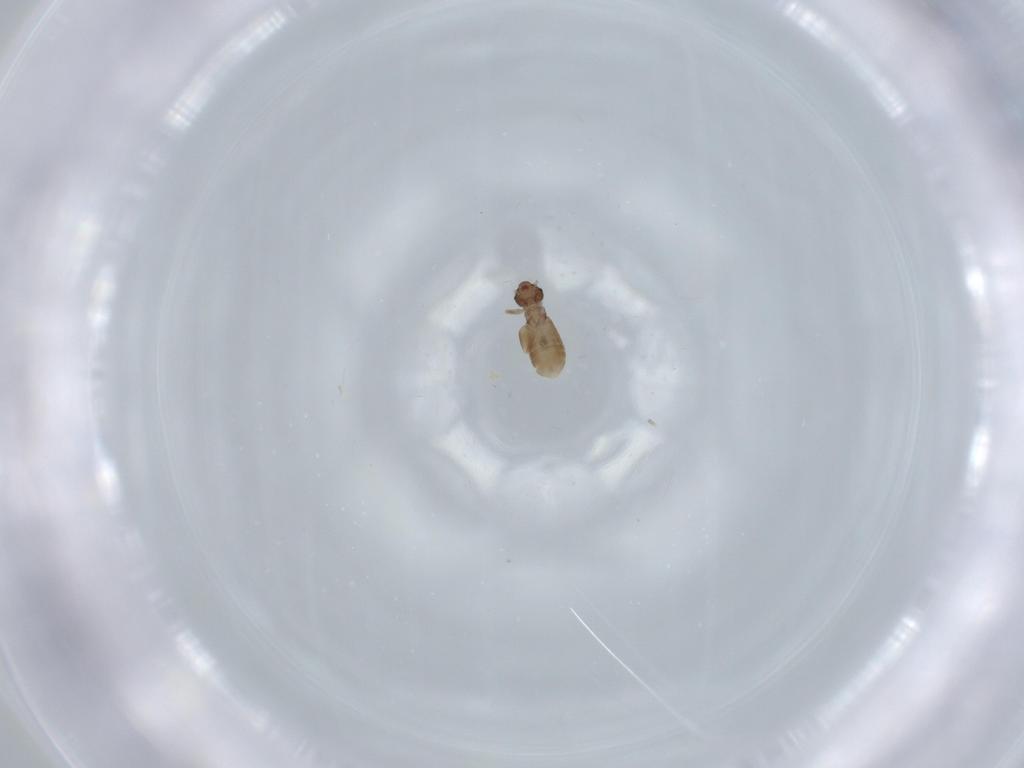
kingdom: Animalia
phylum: Arthropoda
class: Insecta
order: Psocodea
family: Liposcelididae
